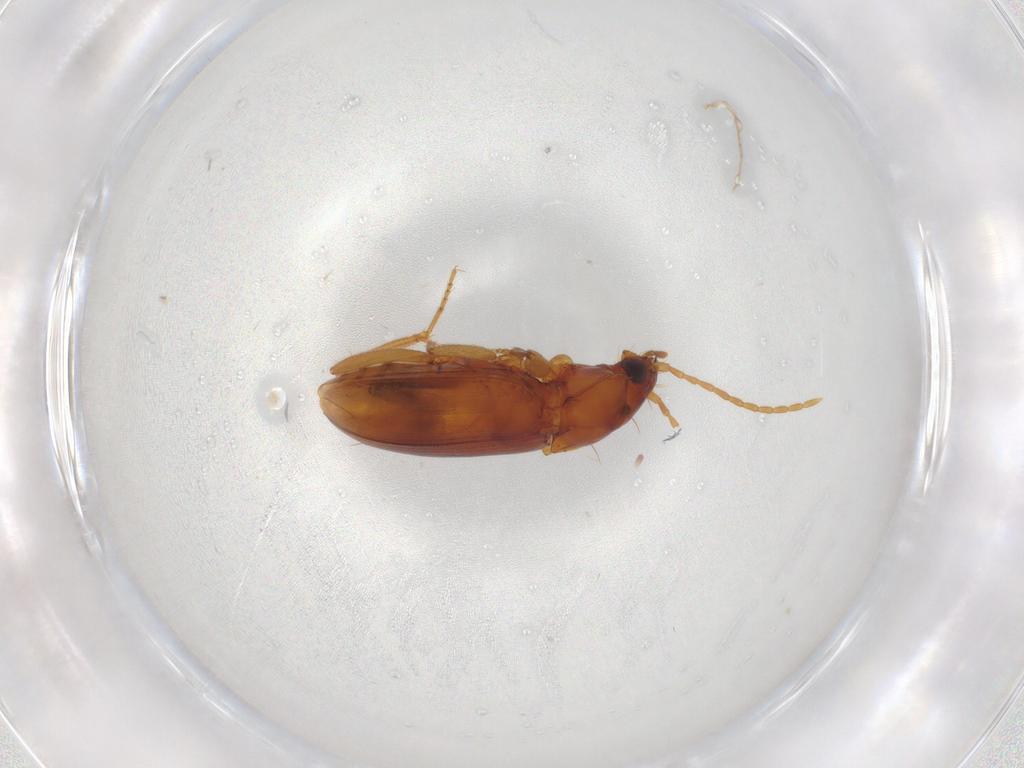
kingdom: Animalia
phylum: Arthropoda
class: Insecta
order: Coleoptera
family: Carabidae
